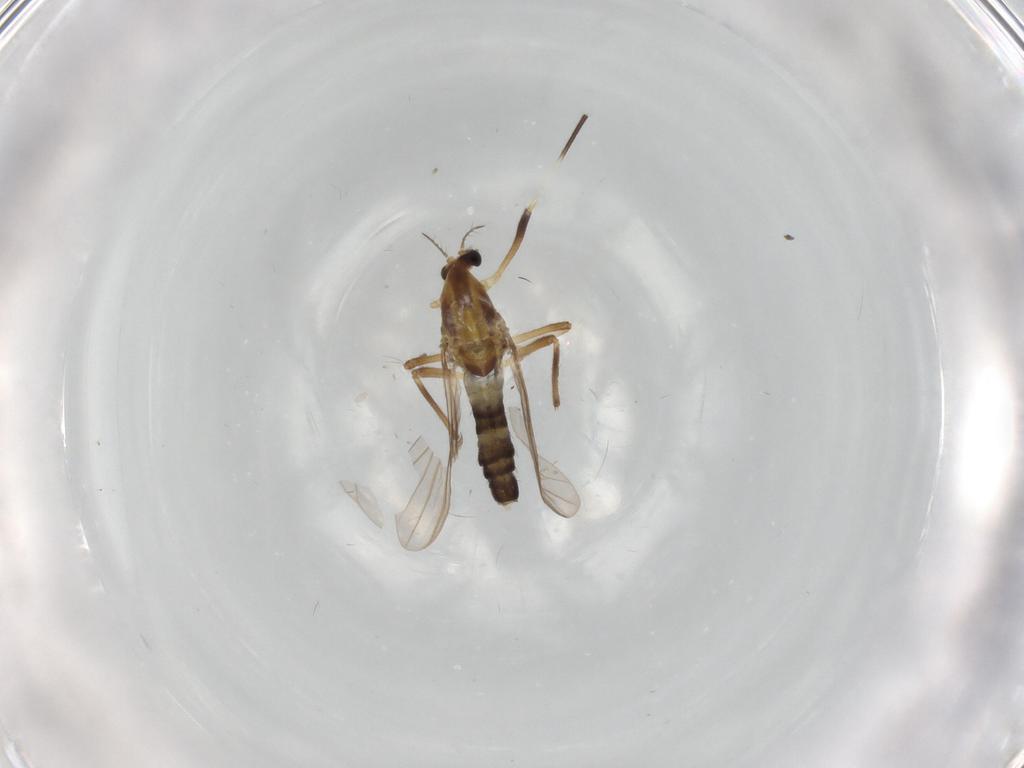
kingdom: Animalia
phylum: Arthropoda
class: Insecta
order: Diptera
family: Chironomidae
